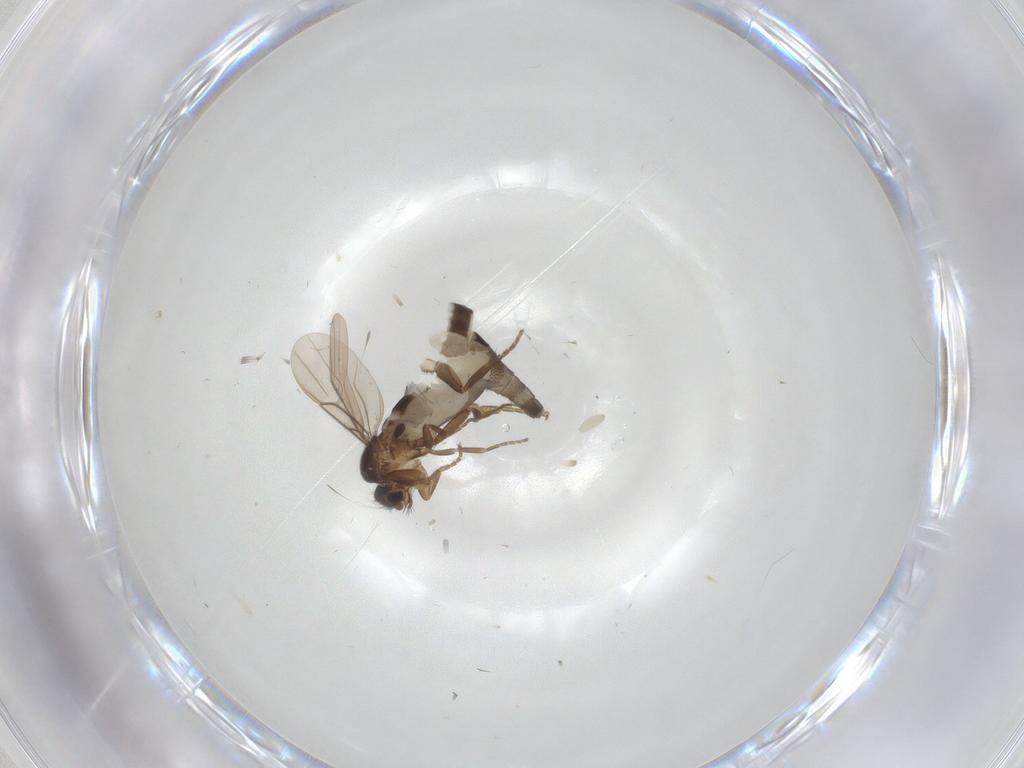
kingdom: Animalia
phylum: Arthropoda
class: Insecta
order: Diptera
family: Phoridae
